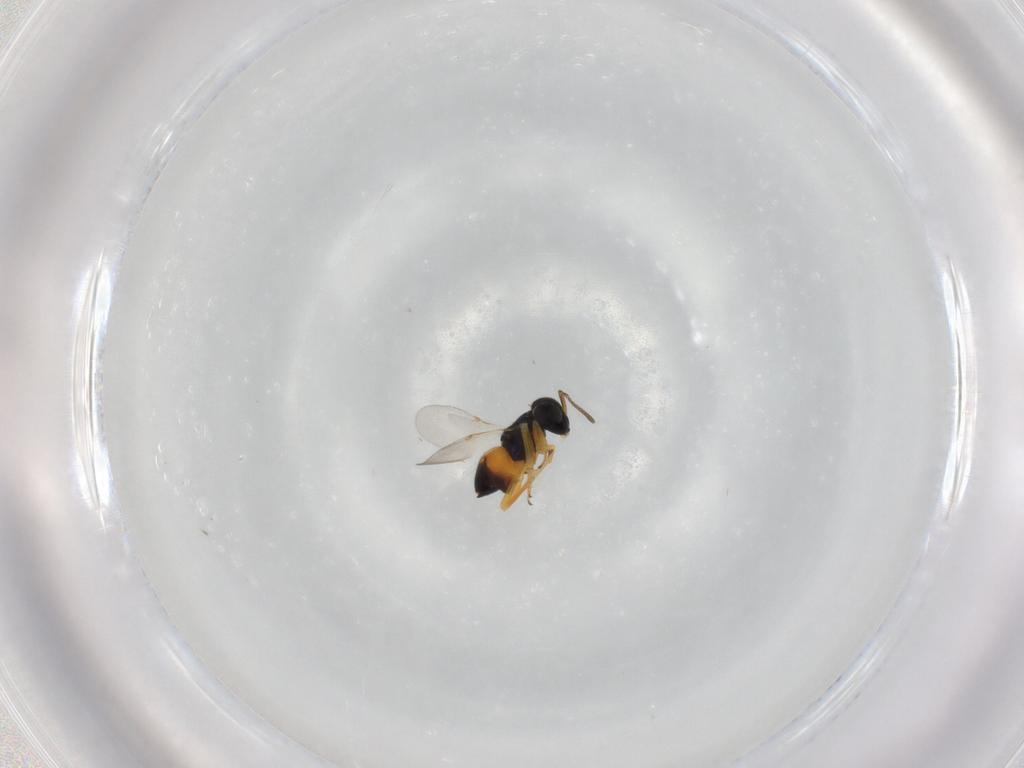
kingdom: Animalia
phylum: Arthropoda
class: Insecta
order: Hymenoptera
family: Encyrtidae
